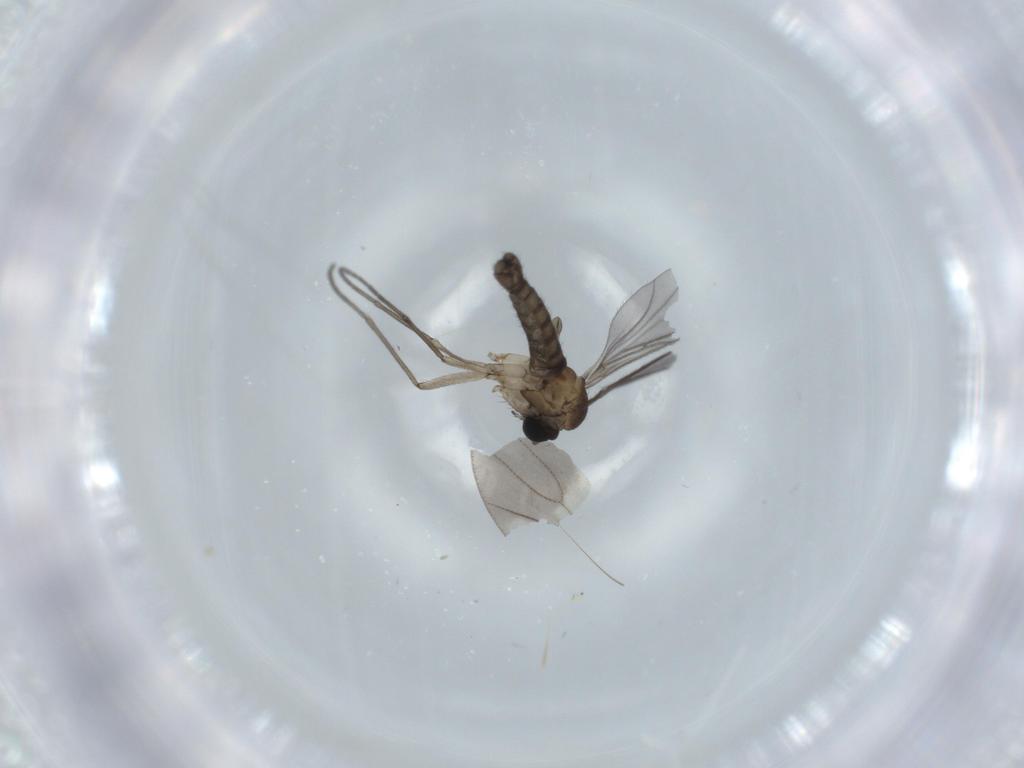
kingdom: Animalia
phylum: Arthropoda
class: Insecta
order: Diptera
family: Sciaridae
